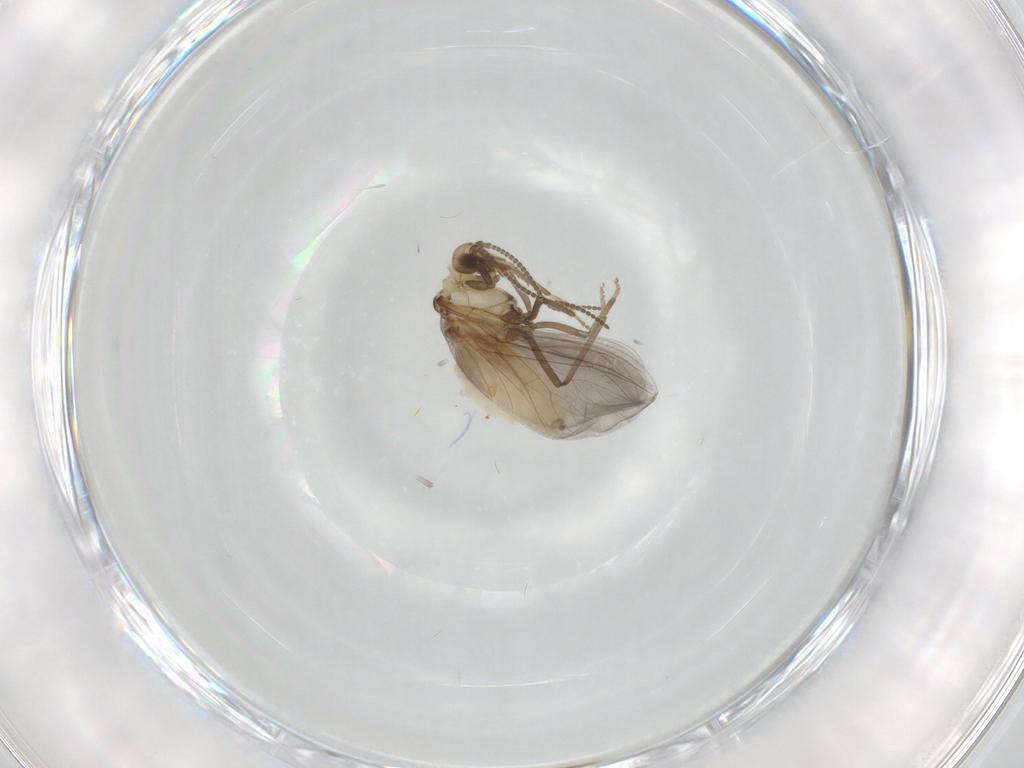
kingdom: Animalia
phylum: Arthropoda
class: Insecta
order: Neuroptera
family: Coniopterygidae
